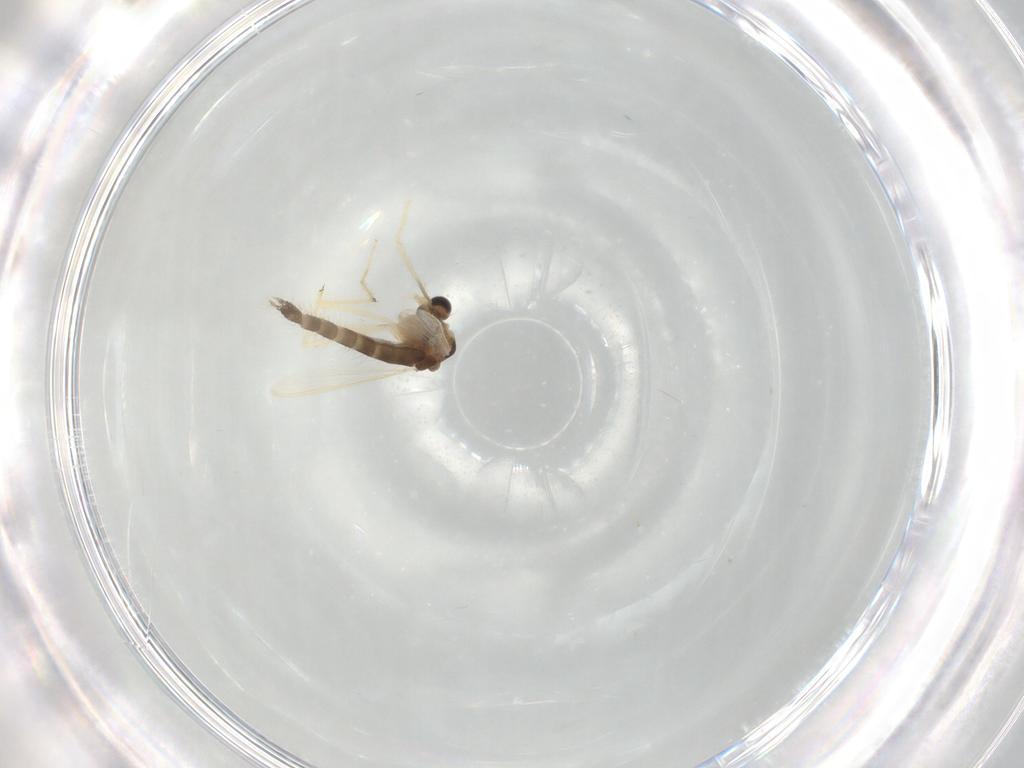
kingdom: Animalia
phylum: Arthropoda
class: Insecta
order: Diptera
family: Chironomidae
